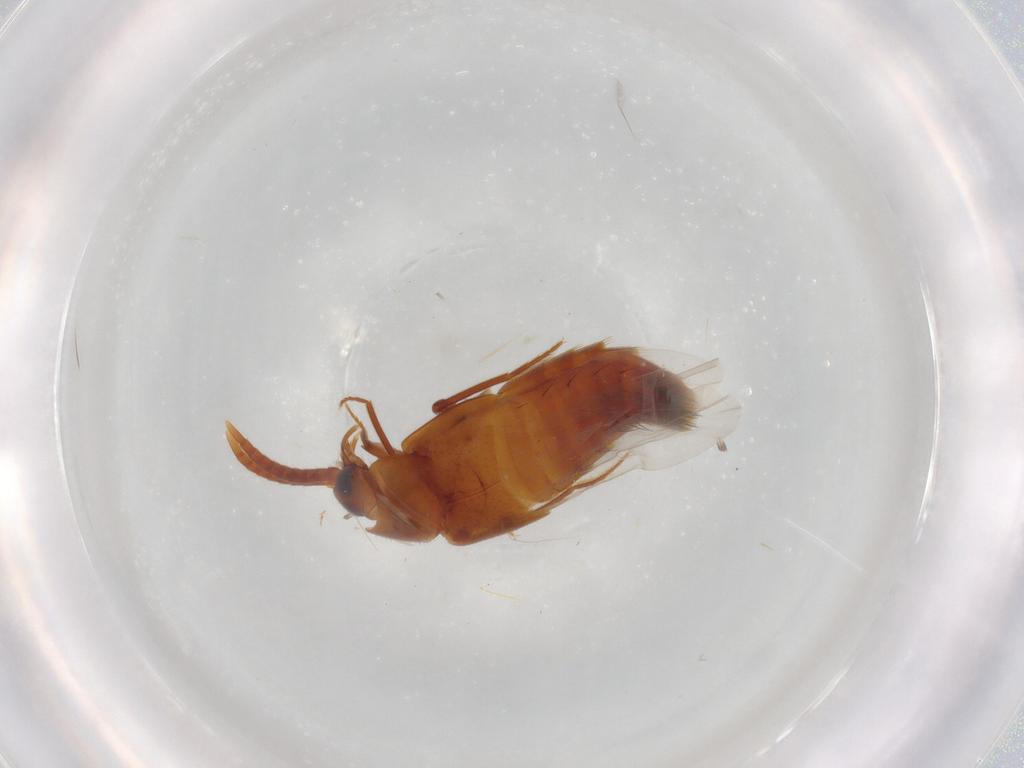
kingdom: Animalia
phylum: Arthropoda
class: Insecta
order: Coleoptera
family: Staphylinidae
